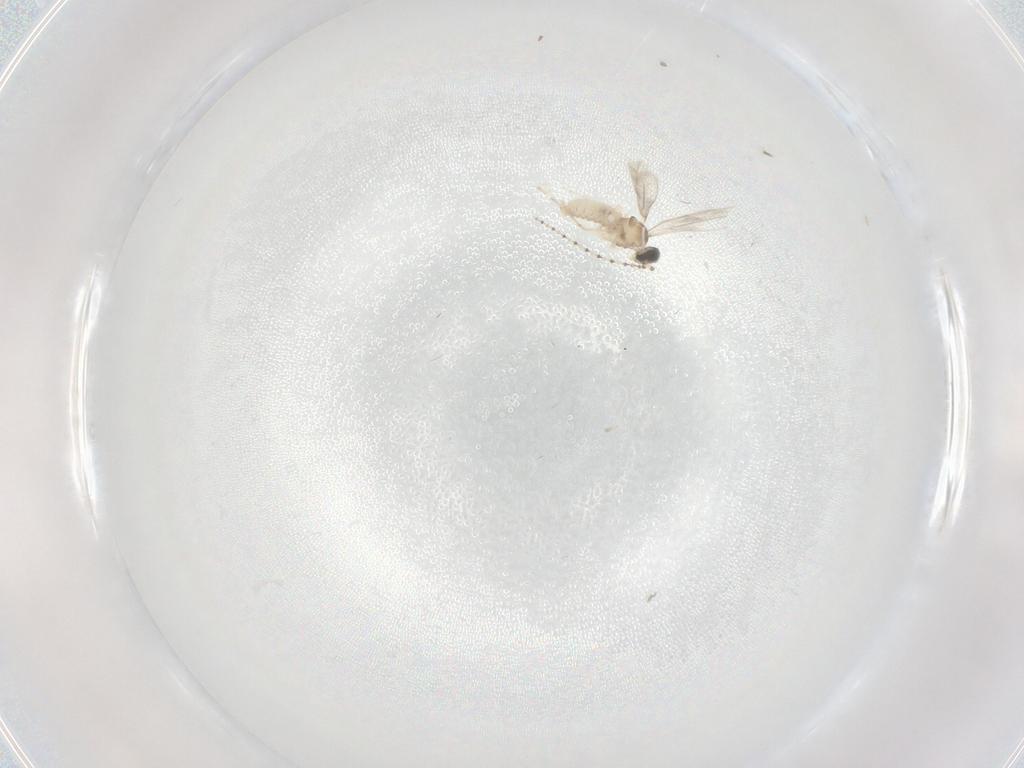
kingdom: Animalia
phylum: Arthropoda
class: Insecta
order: Diptera
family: Cecidomyiidae
